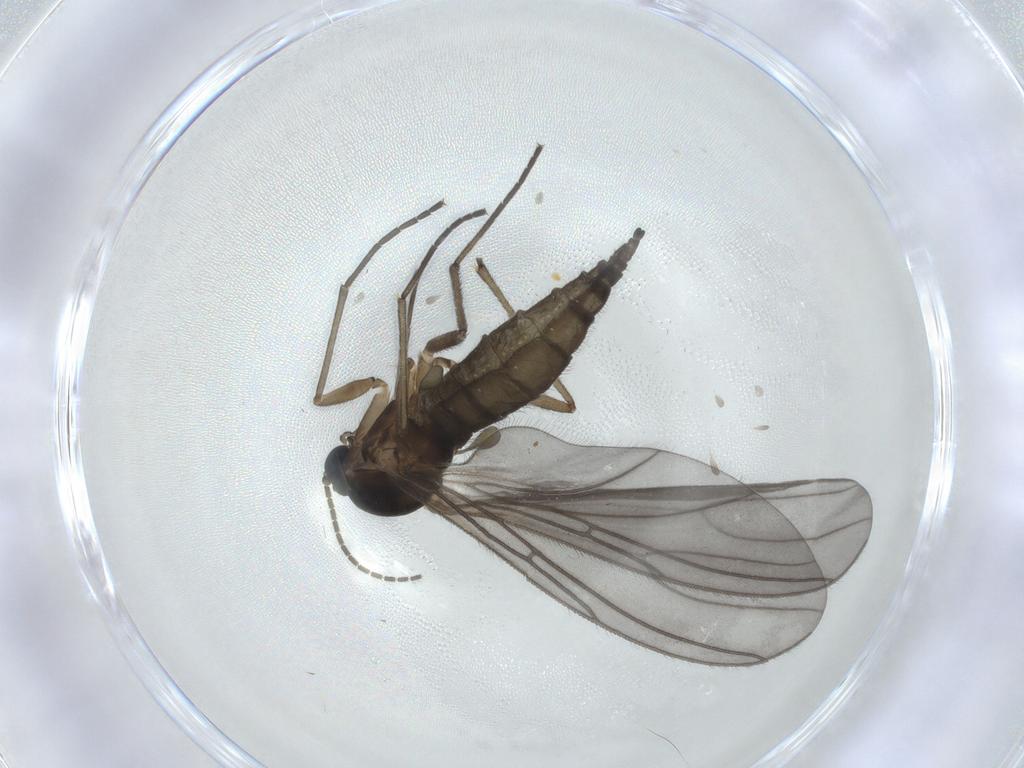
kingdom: Animalia
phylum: Arthropoda
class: Insecta
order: Diptera
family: Sciaridae
